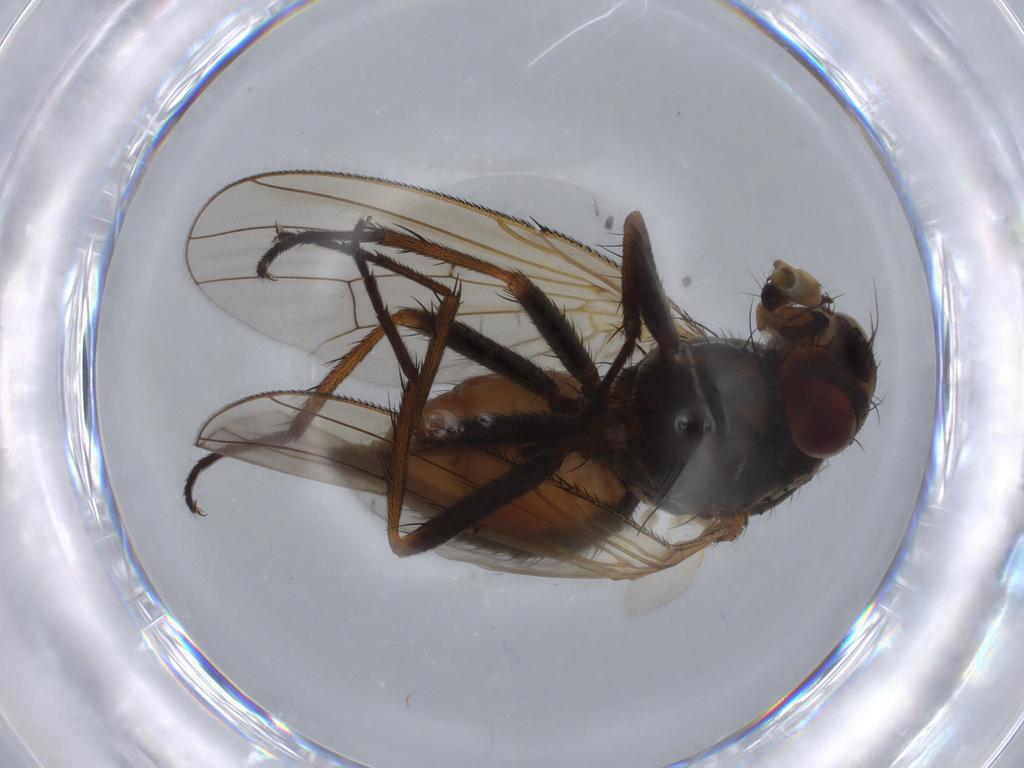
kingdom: Animalia
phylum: Arthropoda
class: Insecta
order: Diptera
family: Anthomyiidae
